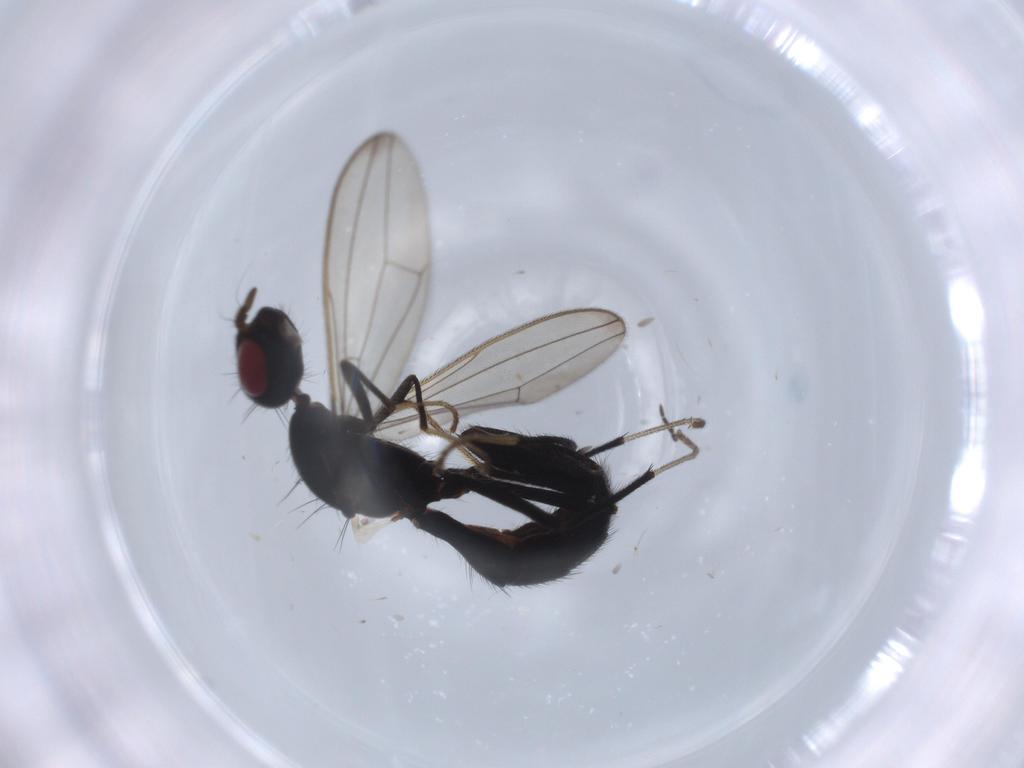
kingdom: Animalia
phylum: Arthropoda
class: Insecta
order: Diptera
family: Richardiidae
